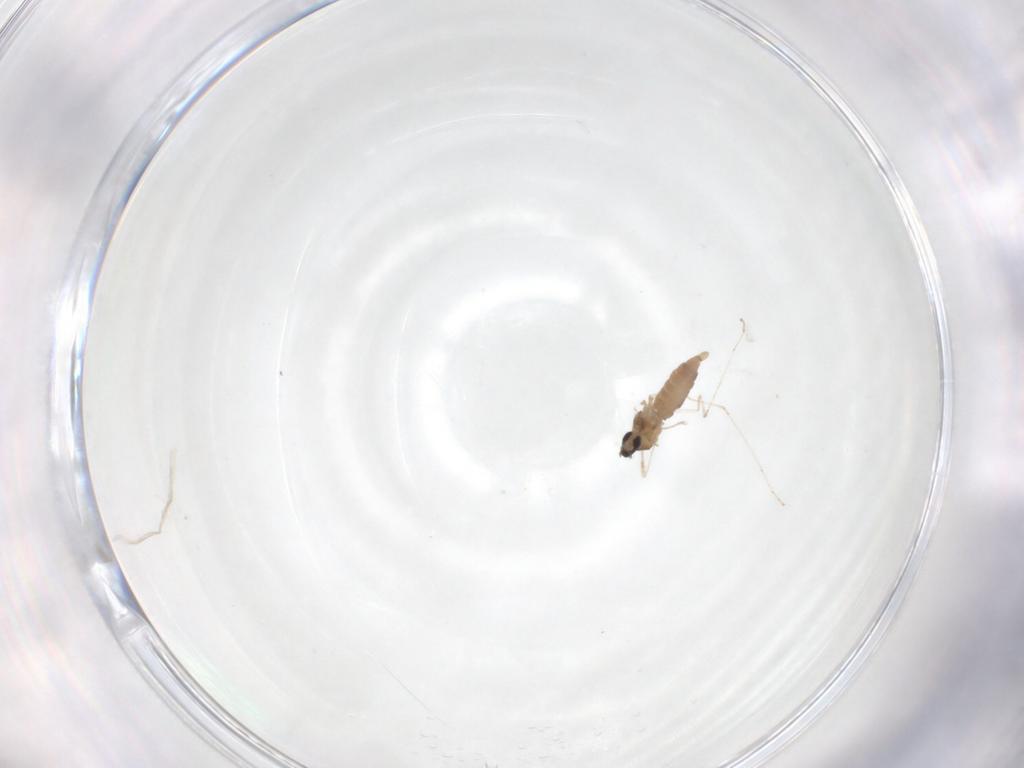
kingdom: Animalia
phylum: Arthropoda
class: Insecta
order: Diptera
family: Cecidomyiidae
